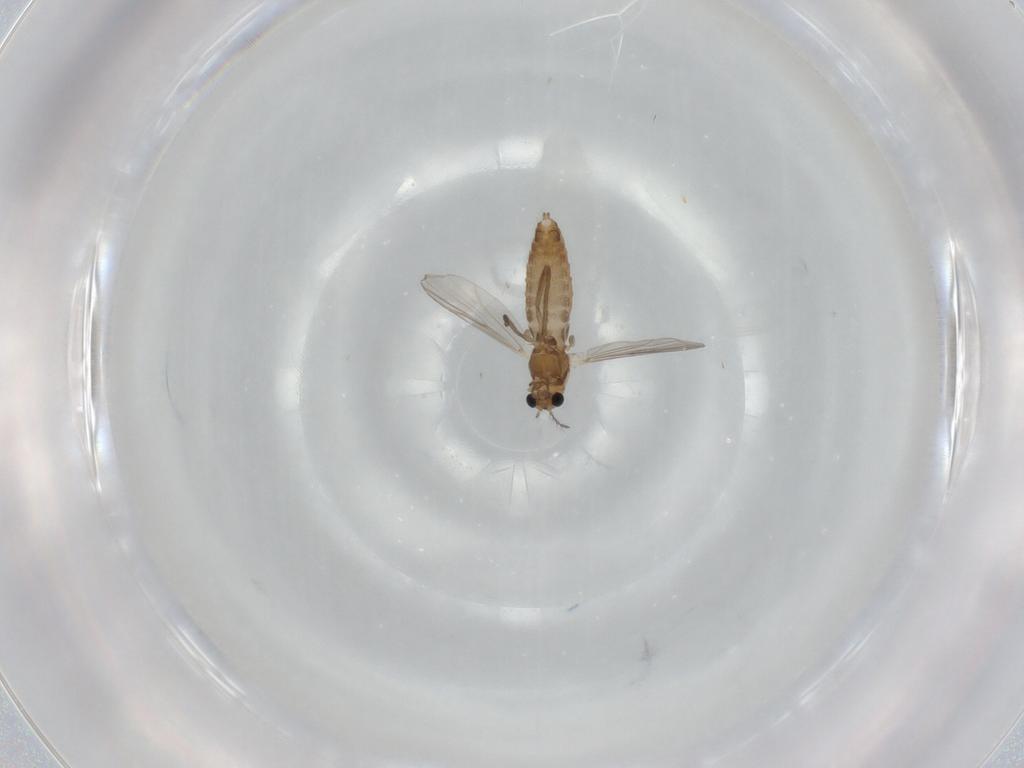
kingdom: Animalia
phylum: Arthropoda
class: Insecta
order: Diptera
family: Chironomidae
